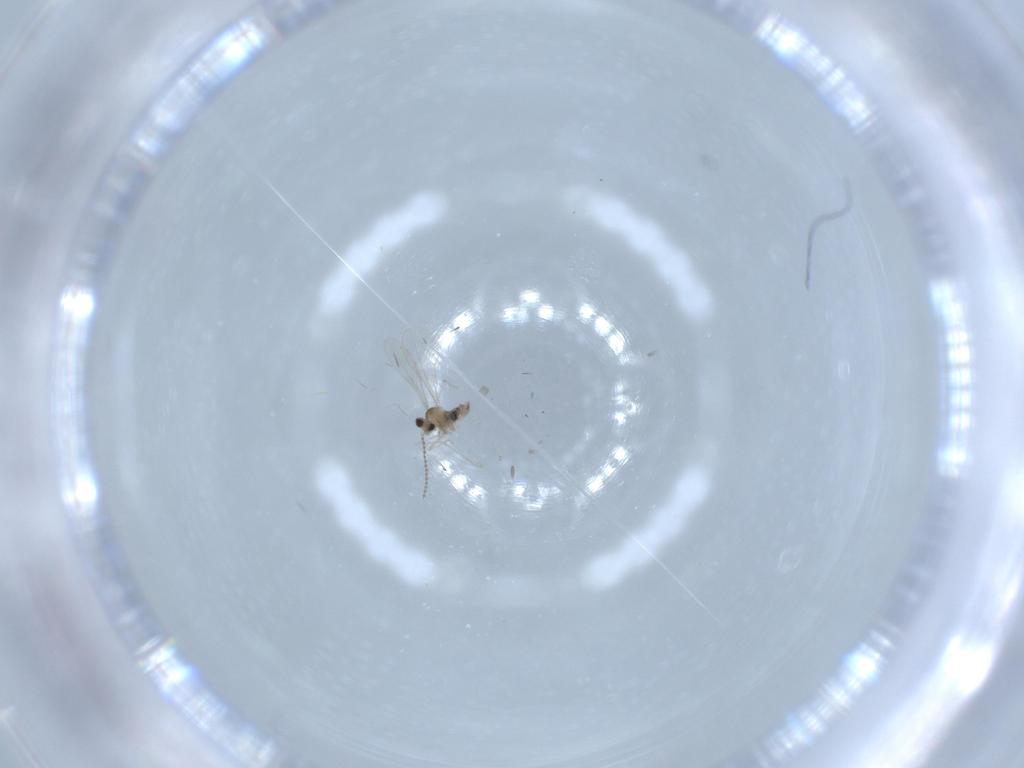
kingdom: Animalia
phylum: Arthropoda
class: Insecta
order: Diptera
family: Cecidomyiidae
